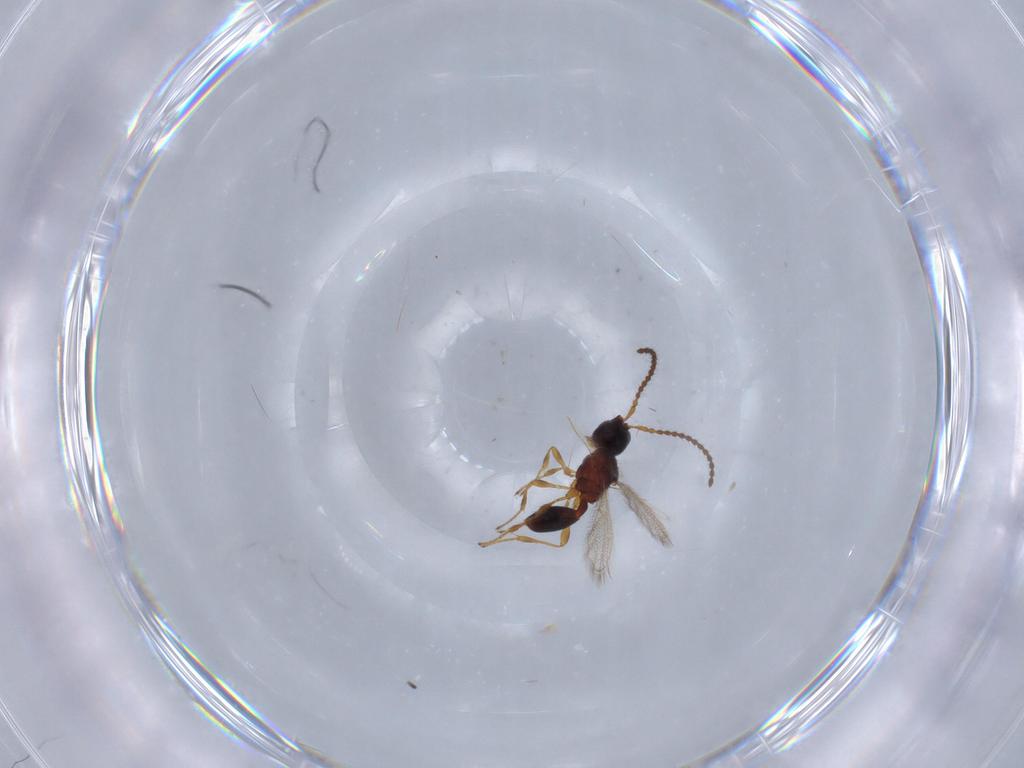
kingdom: Animalia
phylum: Arthropoda
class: Insecta
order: Hymenoptera
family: Diapriidae
